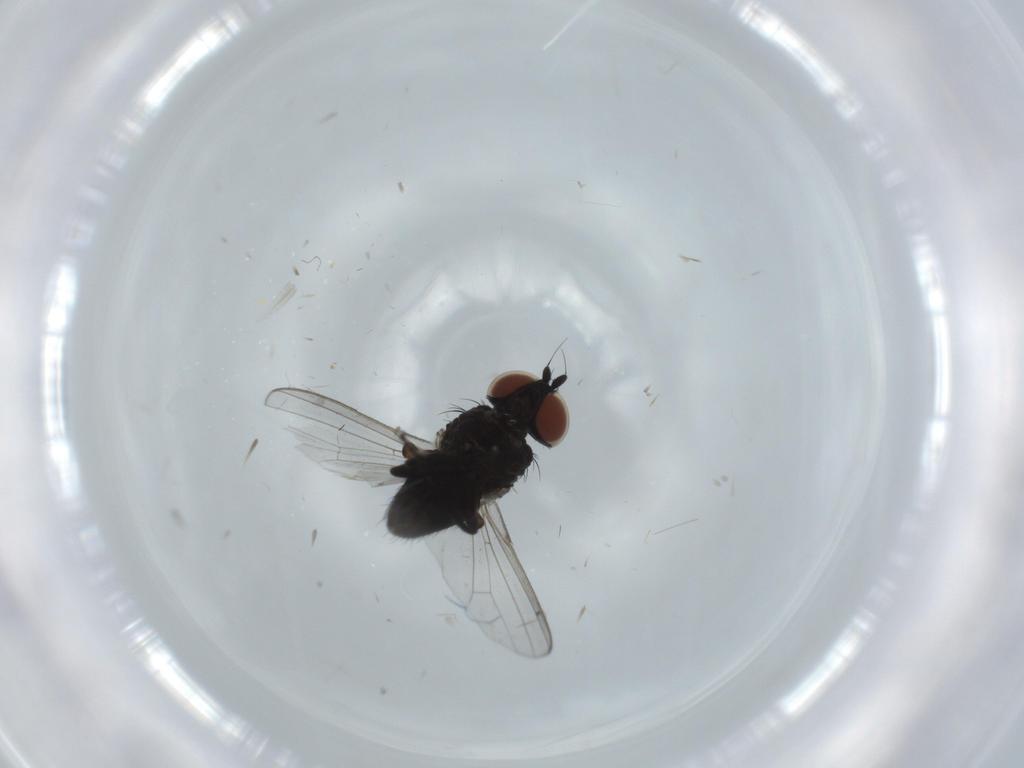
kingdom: Animalia
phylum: Arthropoda
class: Insecta
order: Diptera
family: Milichiidae
